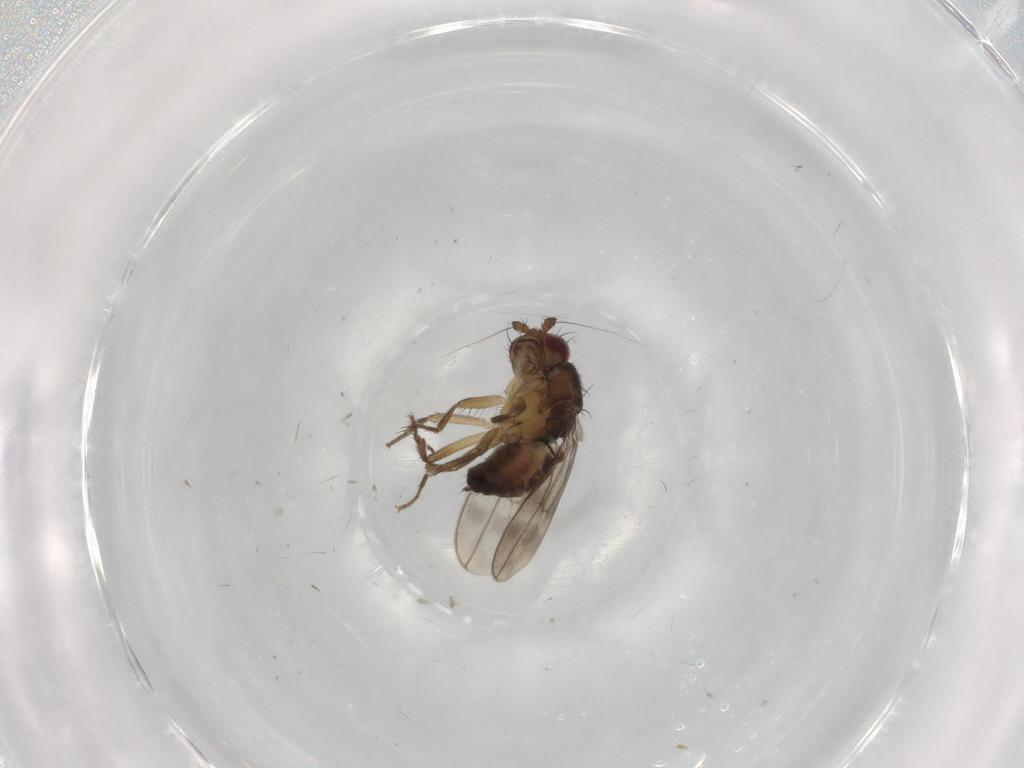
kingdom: Animalia
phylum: Arthropoda
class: Insecta
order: Diptera
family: Sphaeroceridae
